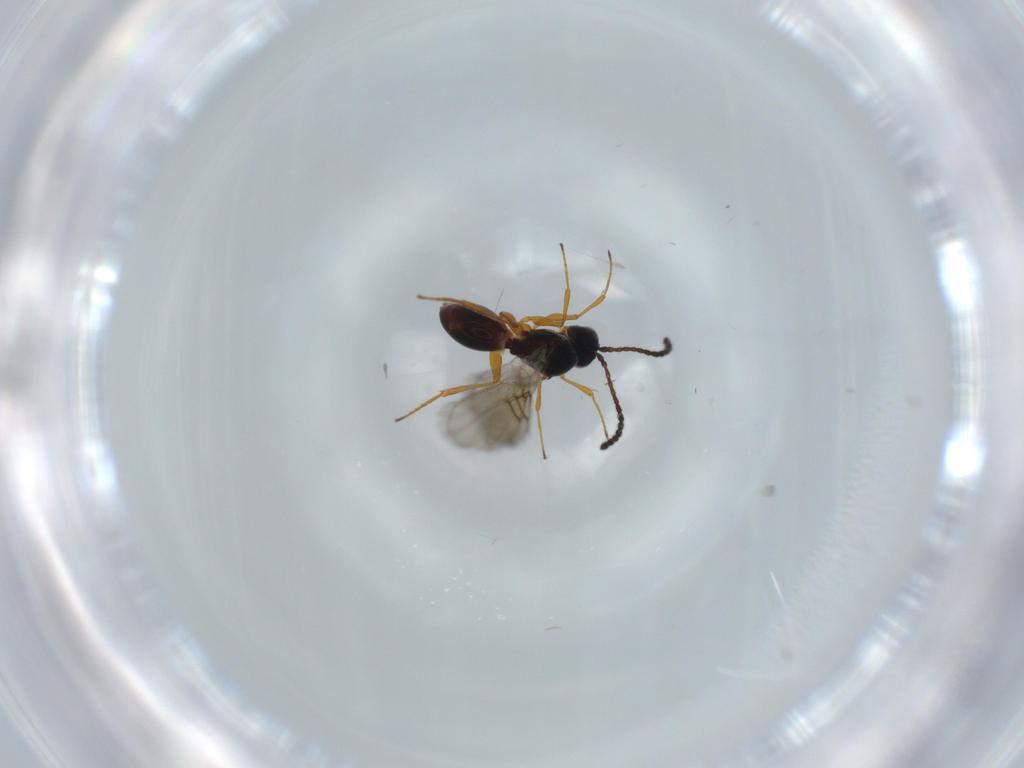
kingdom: Animalia
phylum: Arthropoda
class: Insecta
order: Hymenoptera
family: Figitidae
